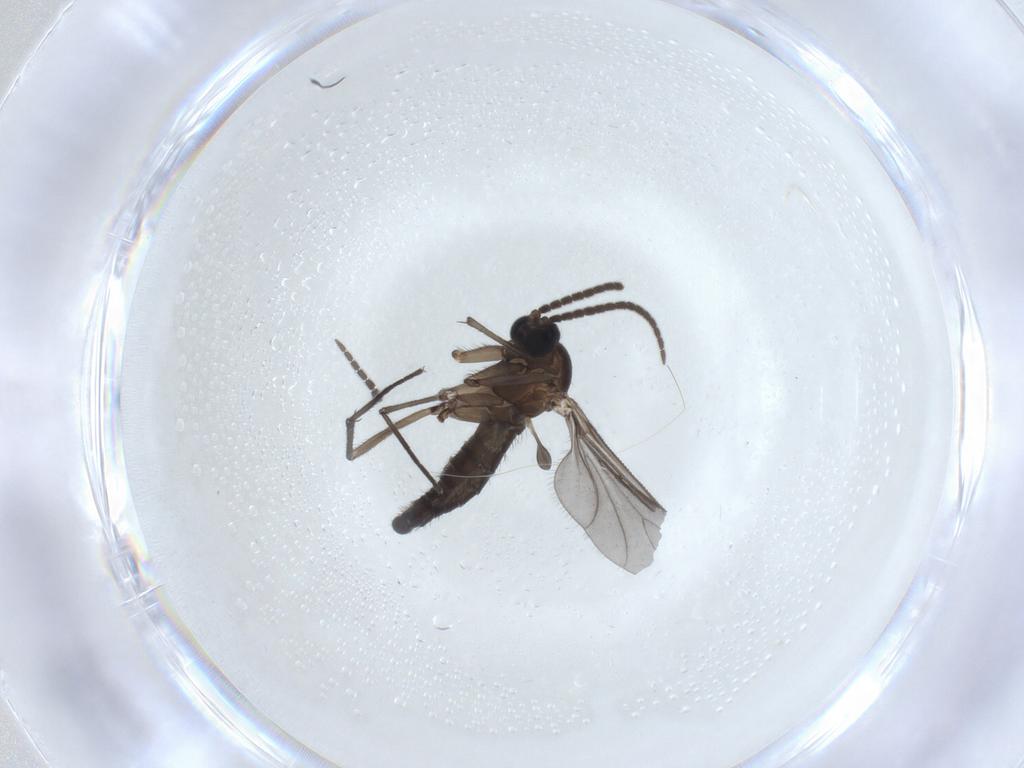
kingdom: Animalia
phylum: Arthropoda
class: Insecta
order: Diptera
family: Sciaridae
